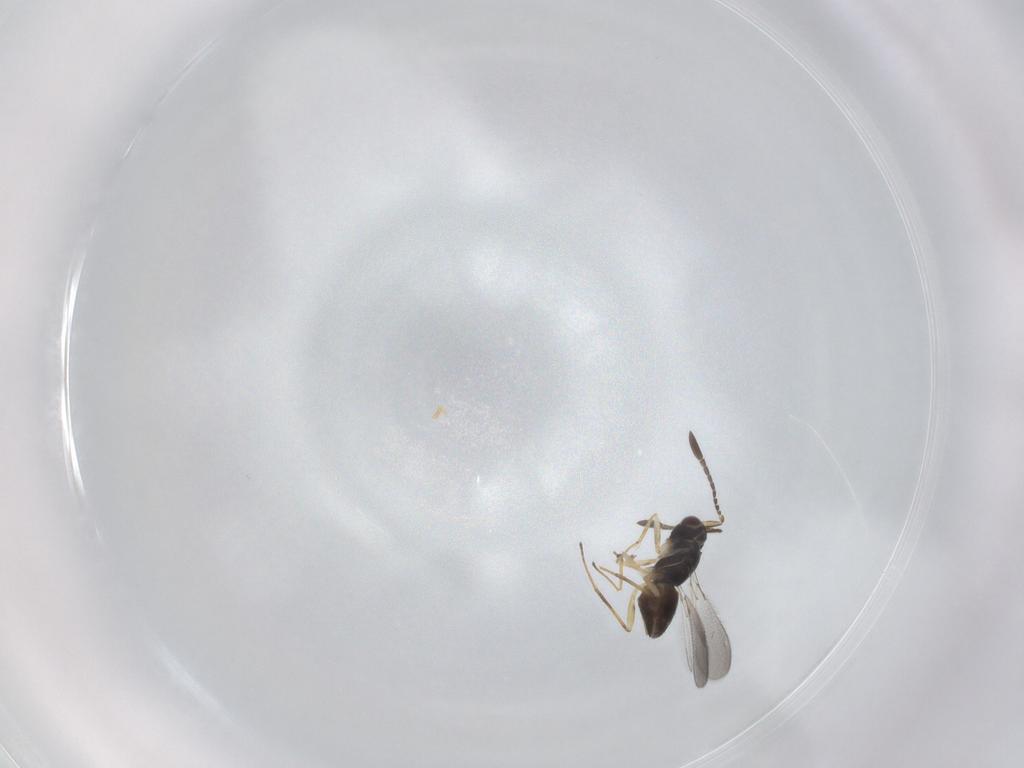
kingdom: Animalia
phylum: Arthropoda
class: Insecta
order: Hymenoptera
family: Mymaridae
